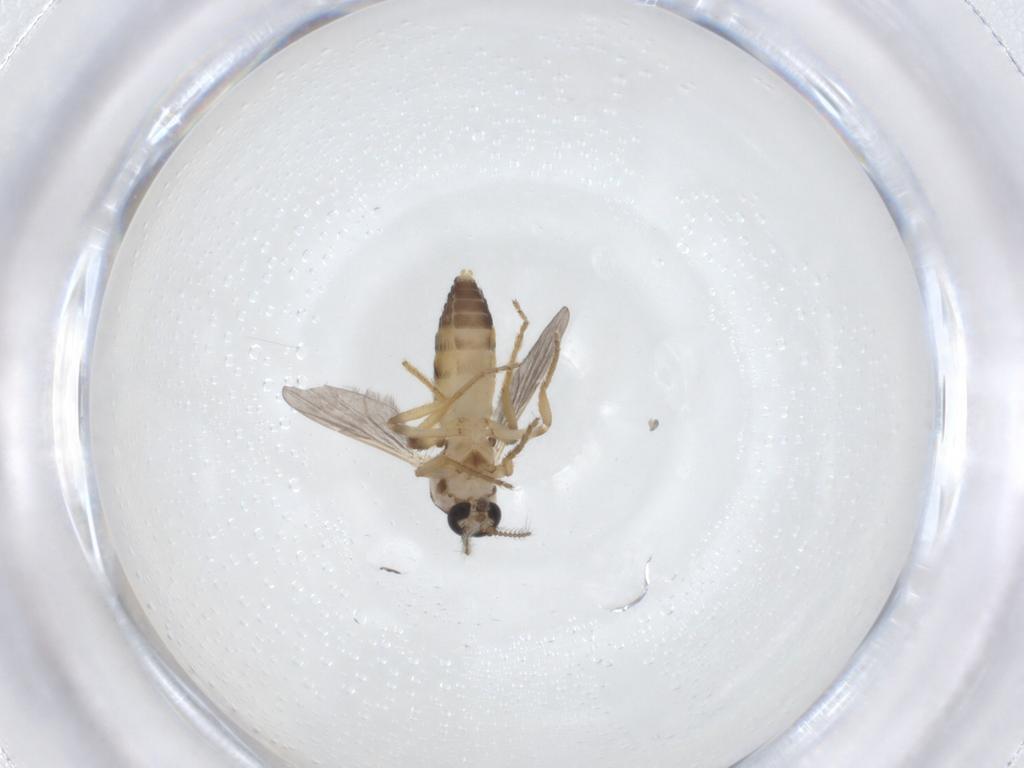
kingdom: Animalia
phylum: Arthropoda
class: Insecta
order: Diptera
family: Ceratopogonidae
